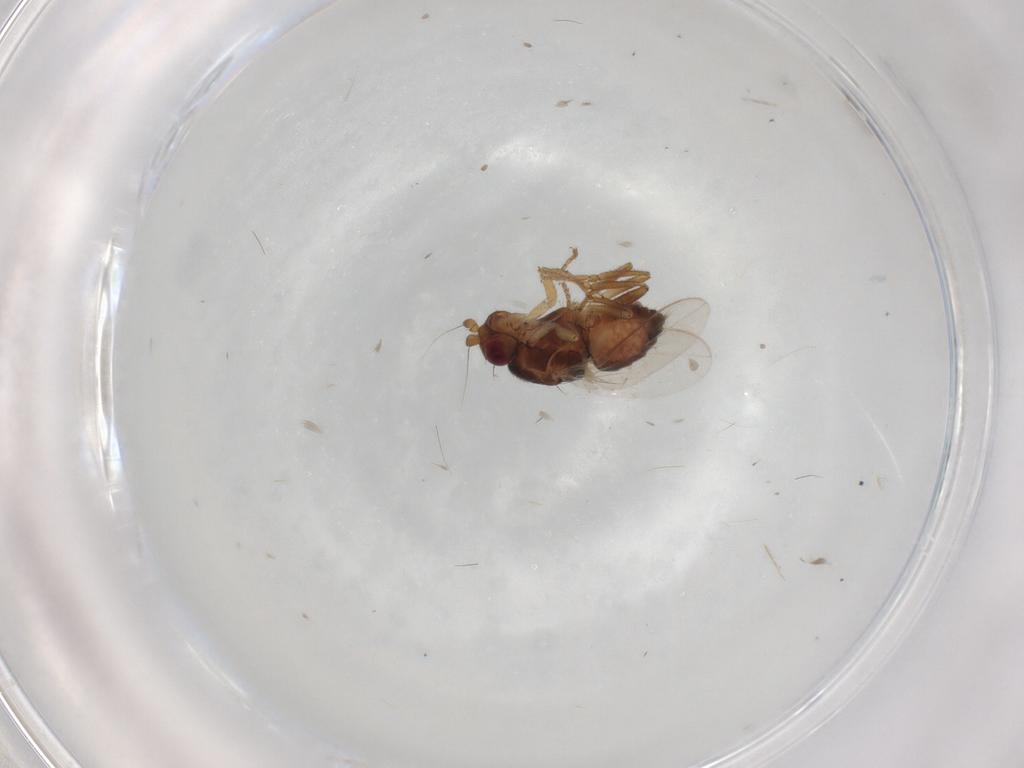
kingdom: Animalia
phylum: Arthropoda
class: Insecta
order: Diptera
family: Sphaeroceridae
